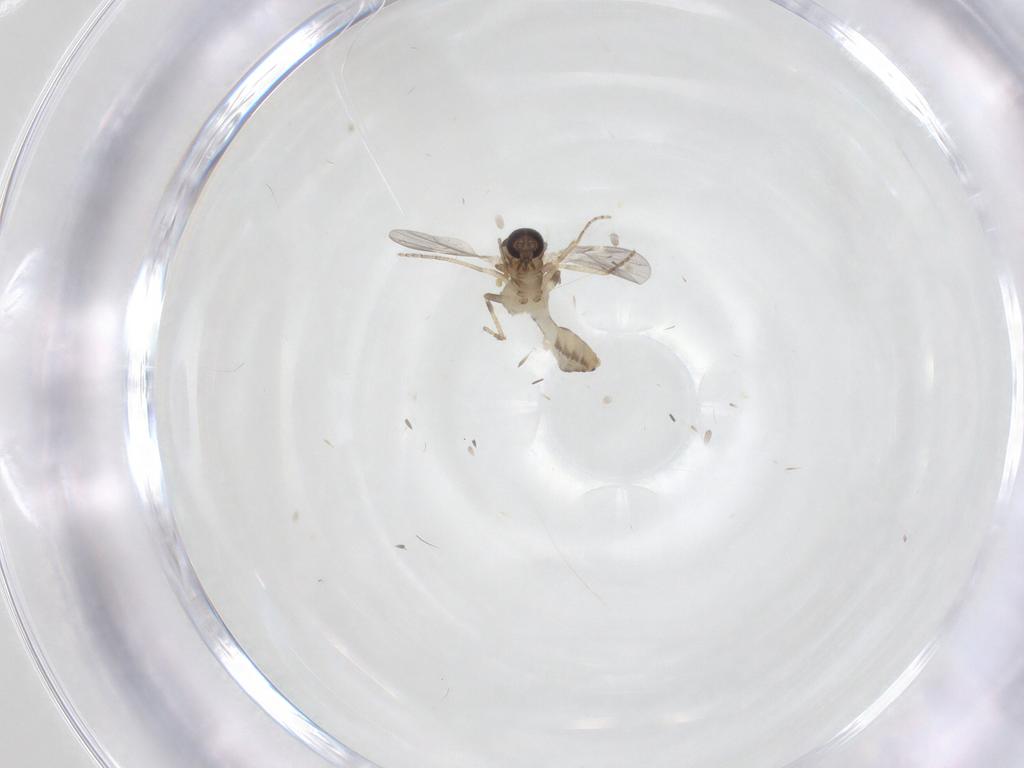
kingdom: Animalia
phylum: Arthropoda
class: Insecta
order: Diptera
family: Ceratopogonidae
